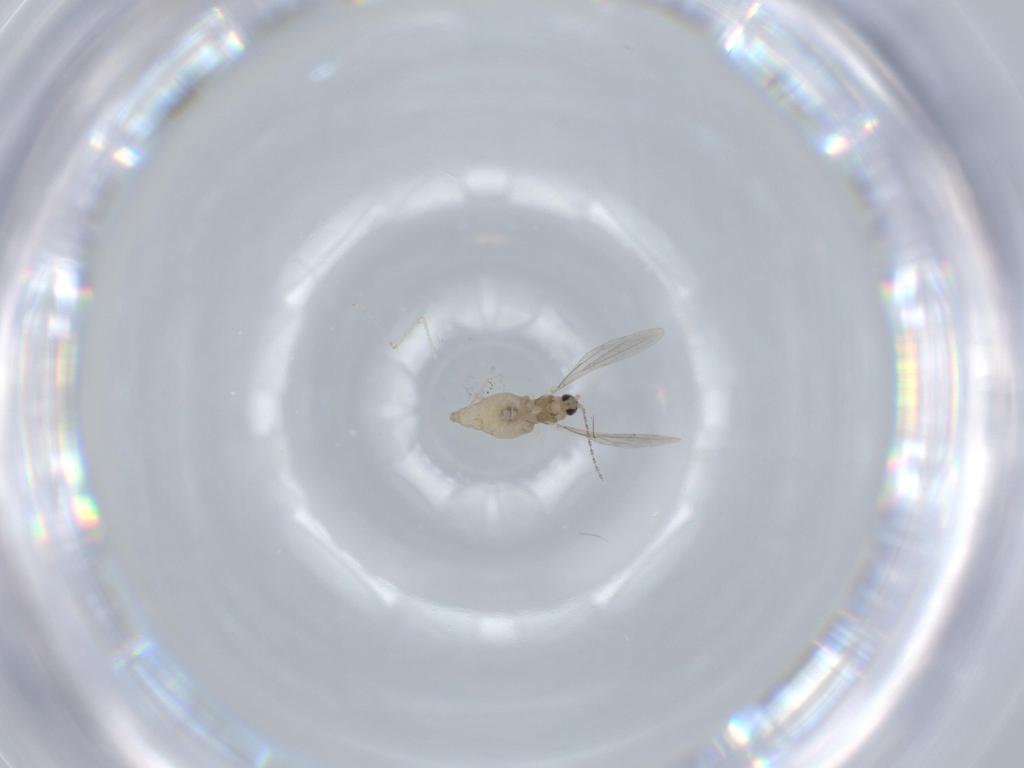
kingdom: Animalia
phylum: Arthropoda
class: Insecta
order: Diptera
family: Cecidomyiidae
